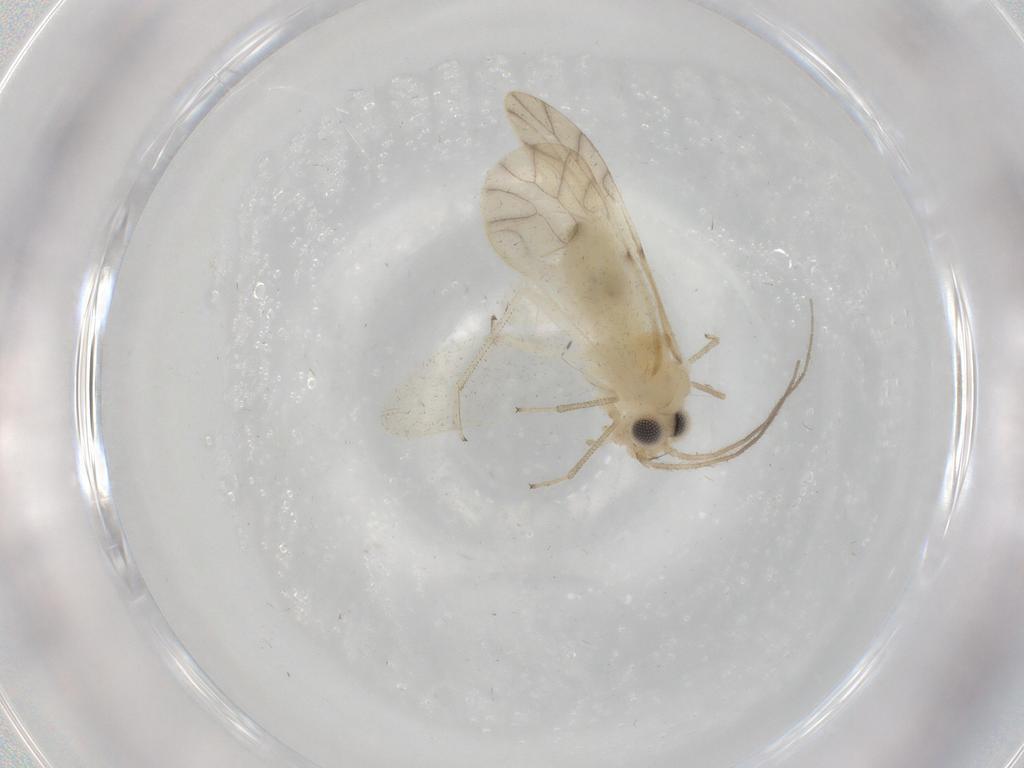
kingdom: Animalia
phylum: Arthropoda
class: Insecta
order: Psocodea
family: Caeciliusidae
